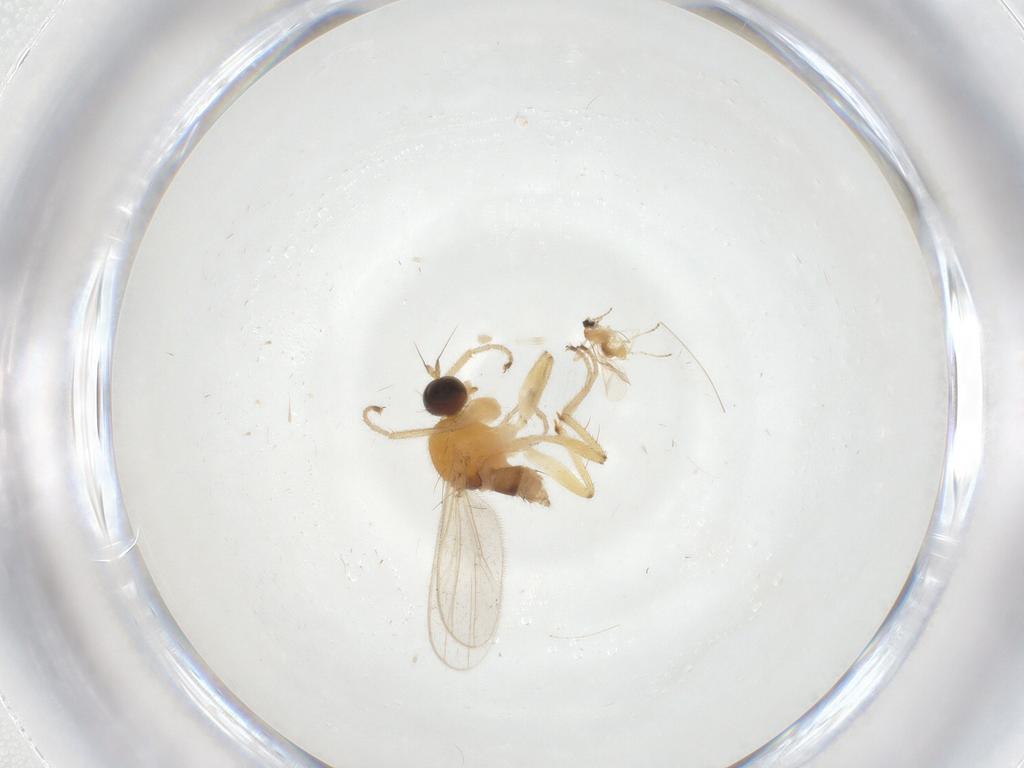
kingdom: Animalia
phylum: Arthropoda
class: Insecta
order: Diptera
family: Cecidomyiidae
